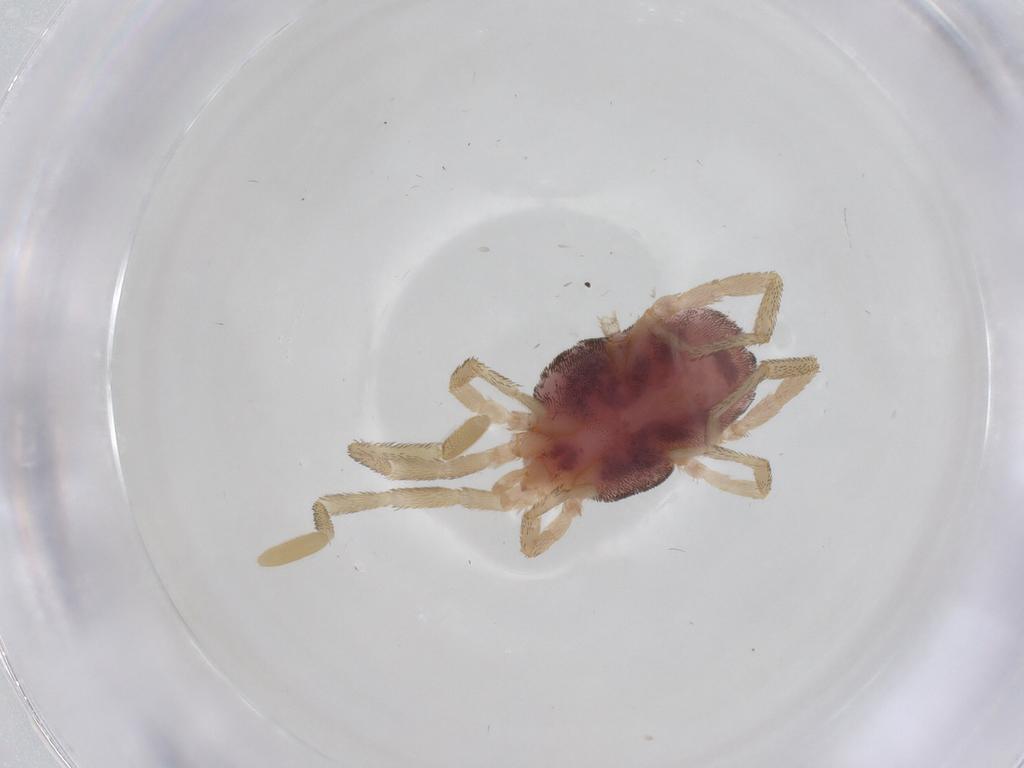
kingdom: Animalia
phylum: Arthropoda
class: Arachnida
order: Trombidiformes
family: Erythraeidae
